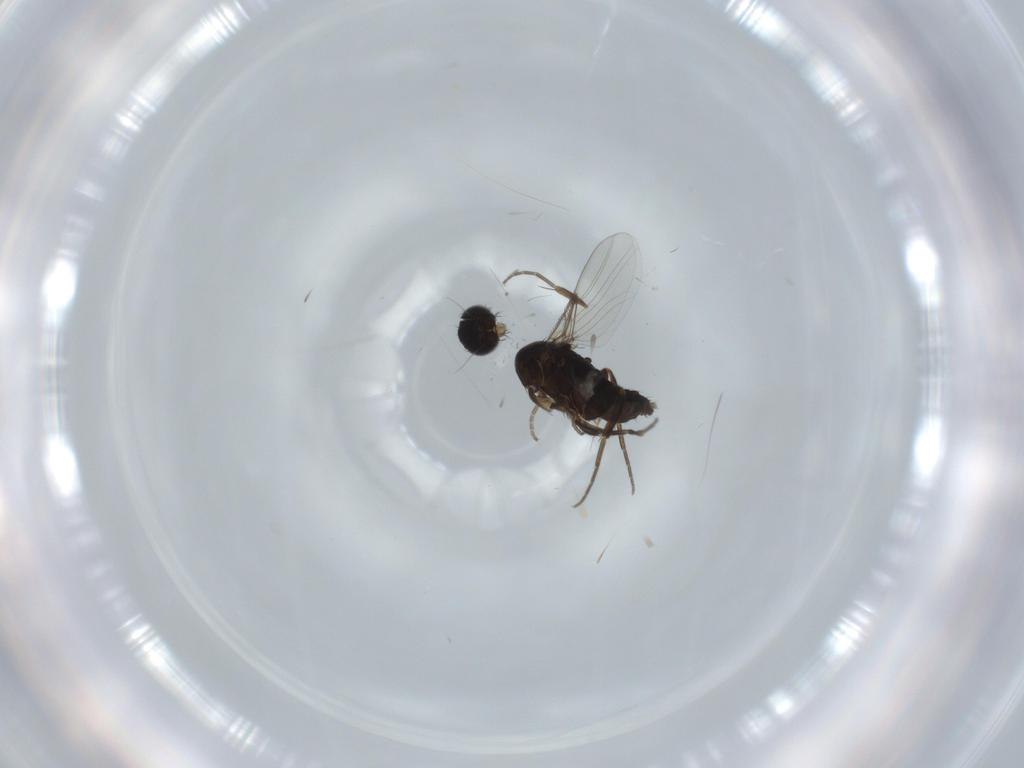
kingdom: Animalia
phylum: Arthropoda
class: Insecta
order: Diptera
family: Phoridae
